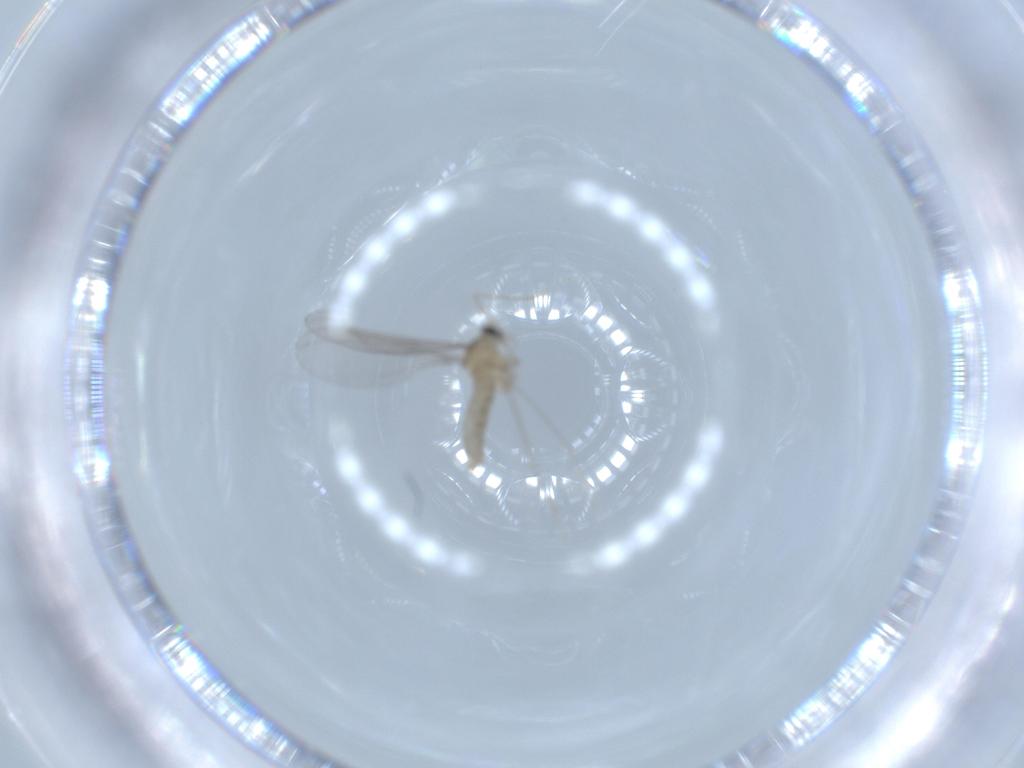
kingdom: Animalia
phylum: Arthropoda
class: Insecta
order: Diptera
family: Cecidomyiidae
